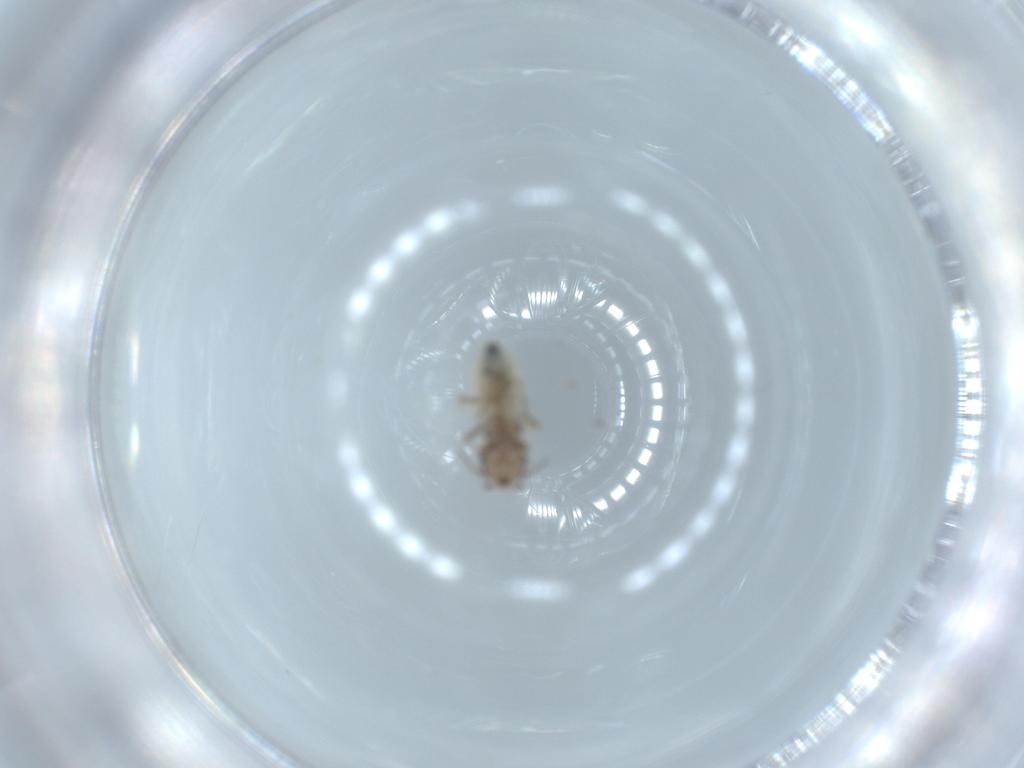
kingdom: Animalia
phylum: Arthropoda
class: Insecta
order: Psocodea
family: Lepidopsocidae
